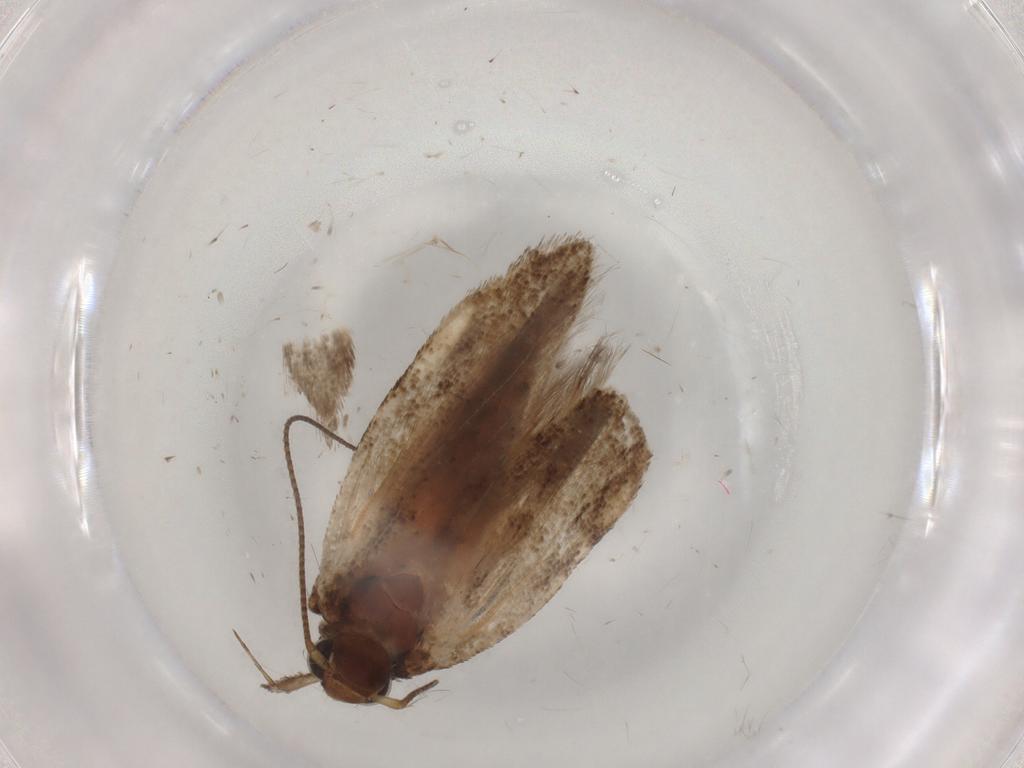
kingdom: Animalia
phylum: Arthropoda
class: Insecta
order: Lepidoptera
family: Gelechiidae
